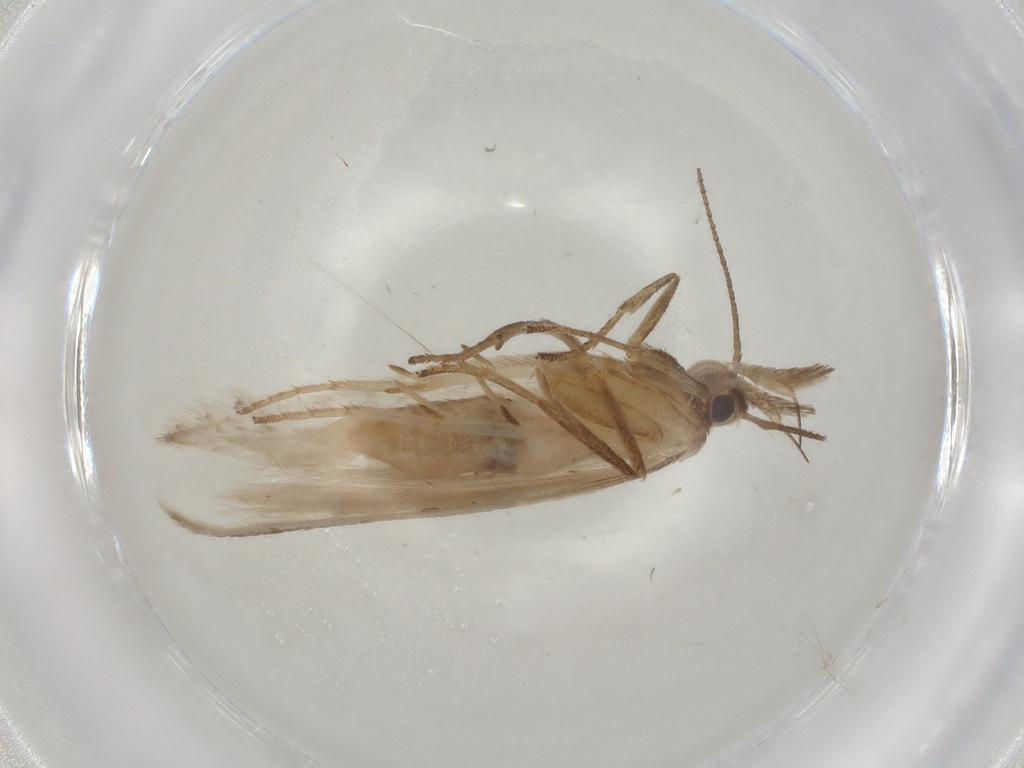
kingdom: Animalia
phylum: Arthropoda
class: Insecta
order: Lepidoptera
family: Gelechiidae
